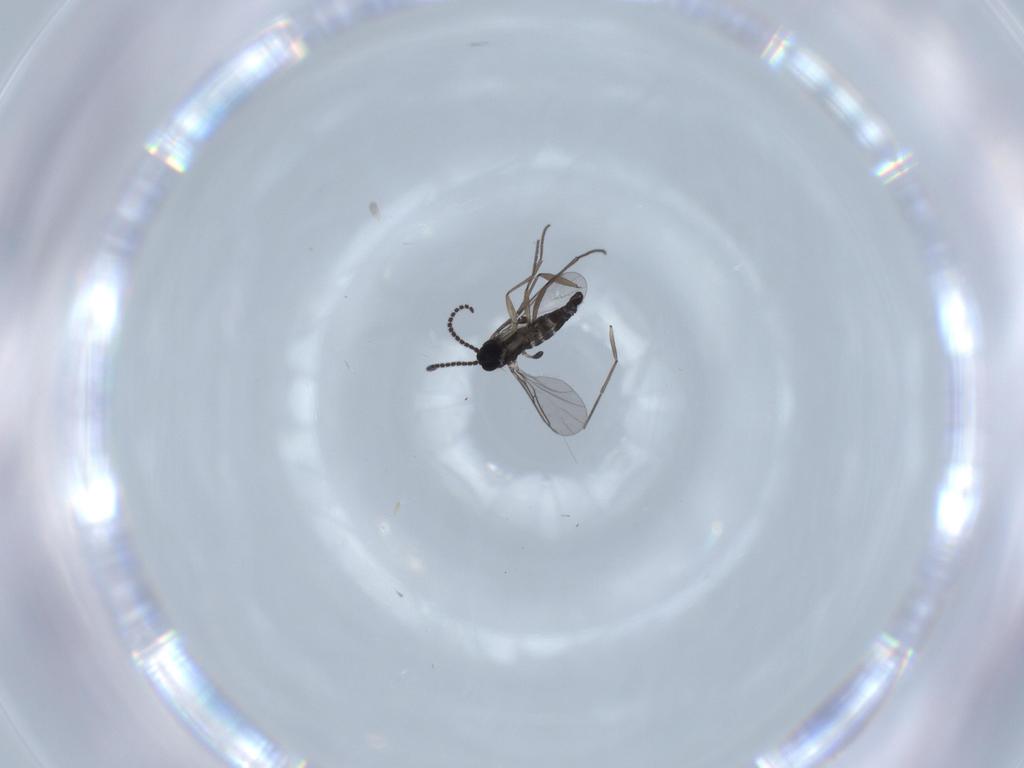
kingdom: Animalia
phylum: Arthropoda
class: Insecta
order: Diptera
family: Sciaridae
